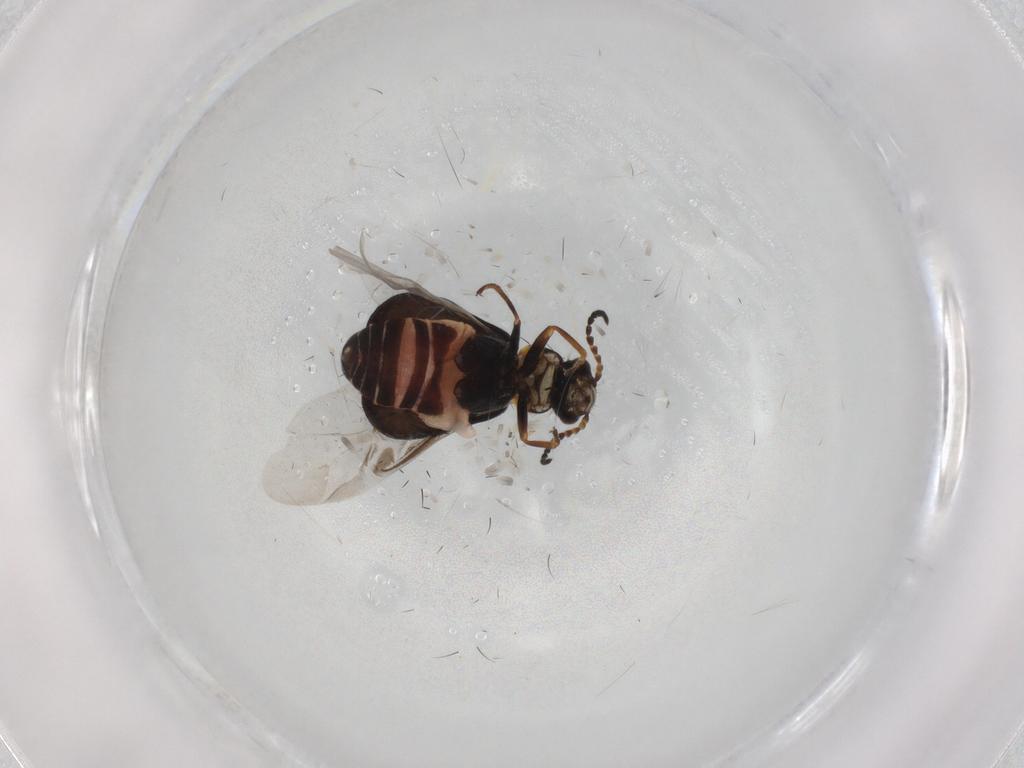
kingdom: Animalia
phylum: Arthropoda
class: Insecta
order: Coleoptera
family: Melyridae
